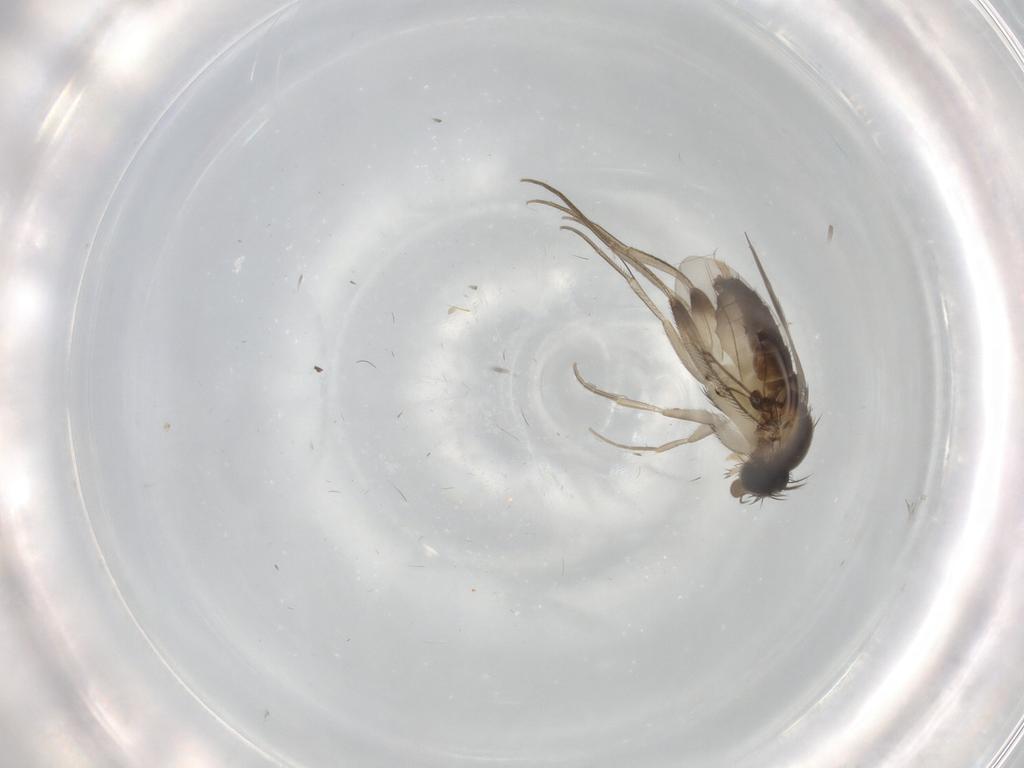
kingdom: Animalia
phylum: Arthropoda
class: Insecta
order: Diptera
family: Phoridae
